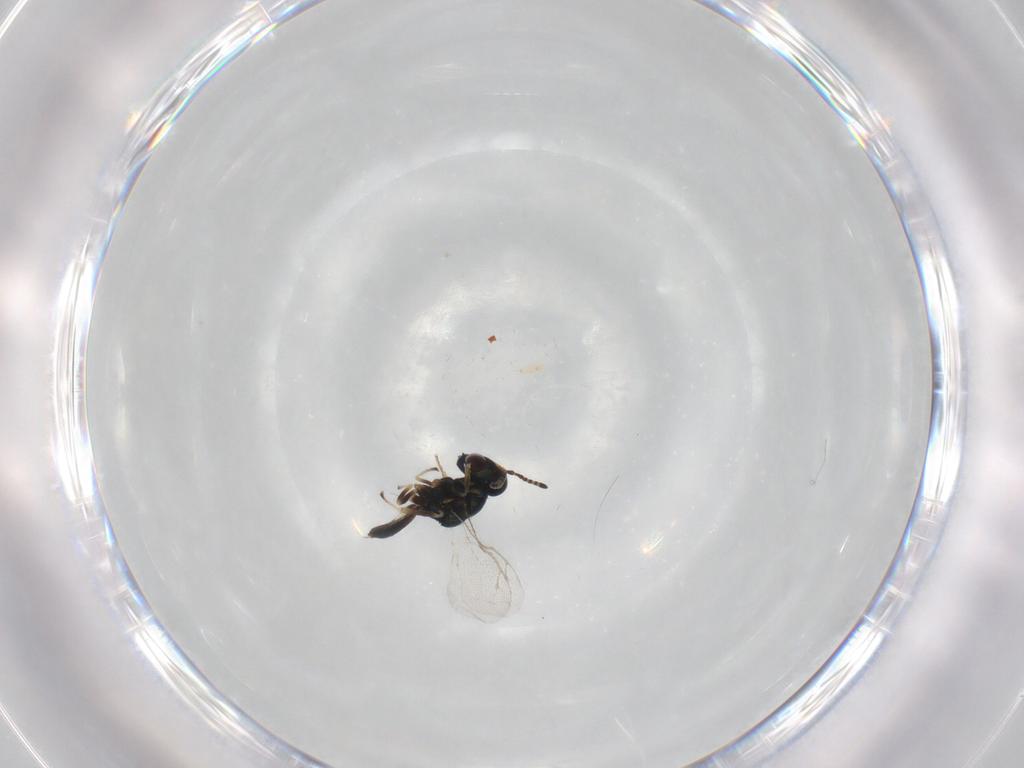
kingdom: Animalia
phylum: Arthropoda
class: Insecta
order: Hymenoptera
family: Pteromalidae
